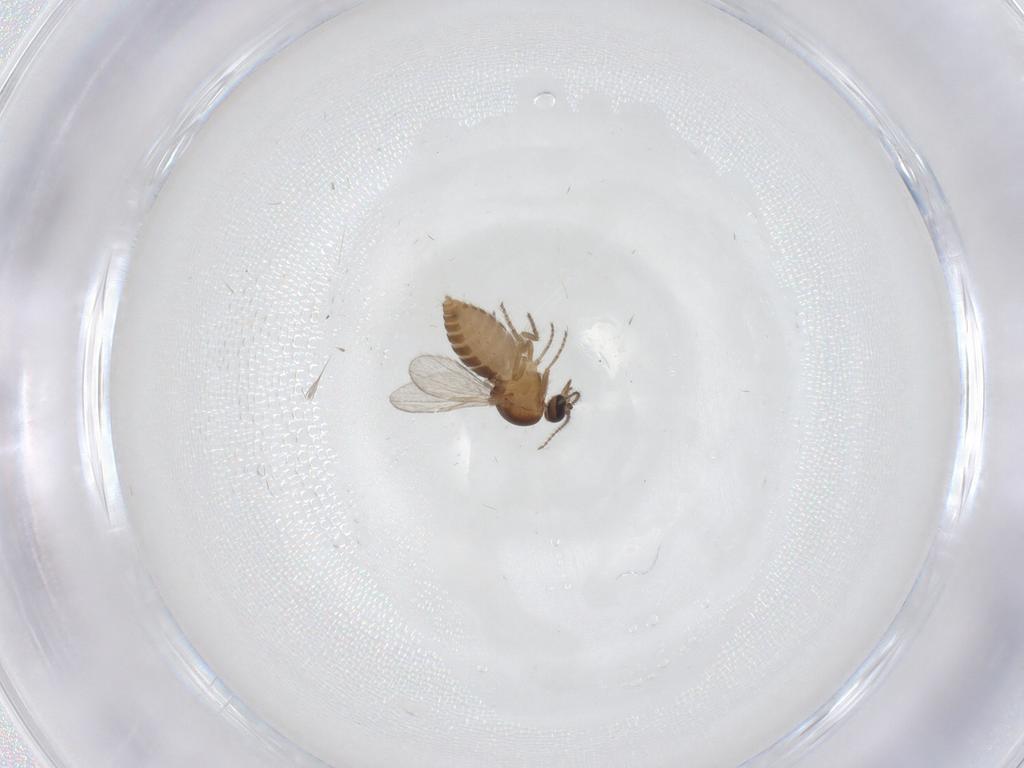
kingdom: Animalia
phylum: Arthropoda
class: Insecta
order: Diptera
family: Ceratopogonidae
